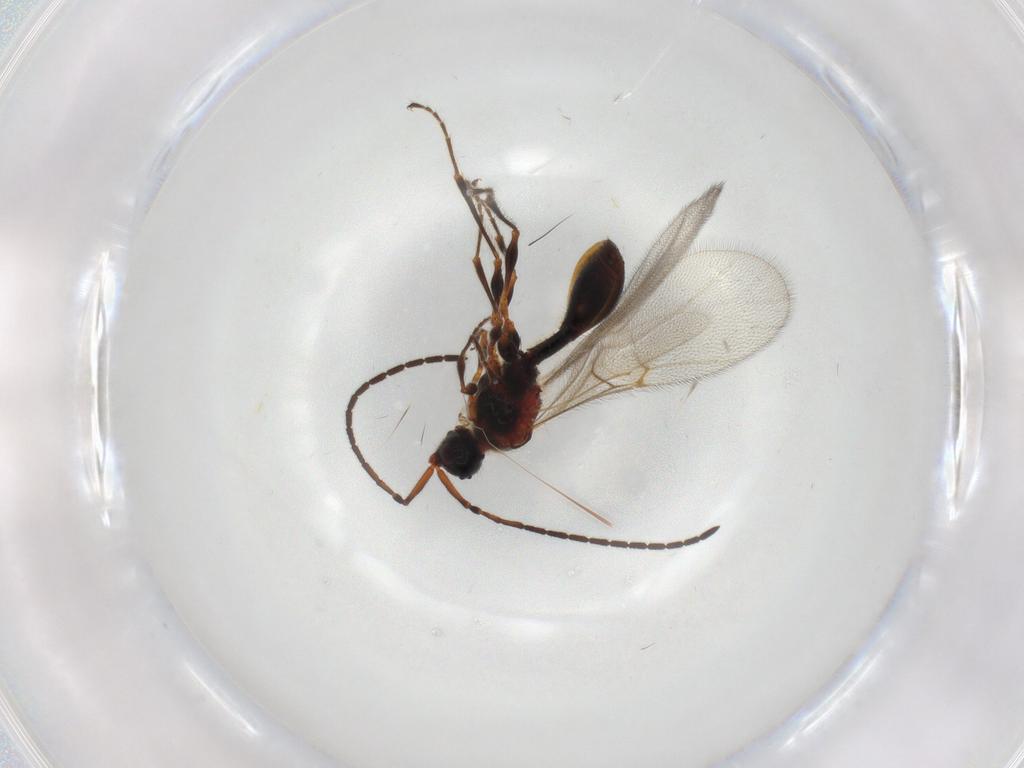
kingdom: Animalia
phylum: Arthropoda
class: Insecta
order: Hymenoptera
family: Diapriidae
